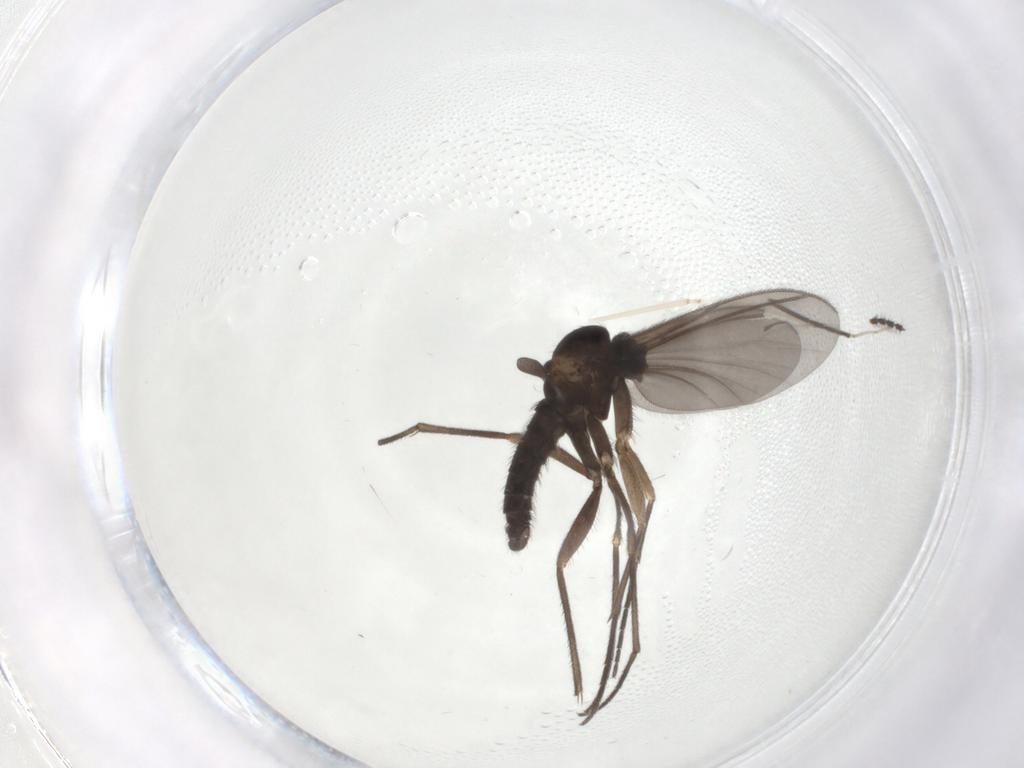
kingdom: Animalia
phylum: Arthropoda
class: Insecta
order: Diptera
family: Sciaridae
